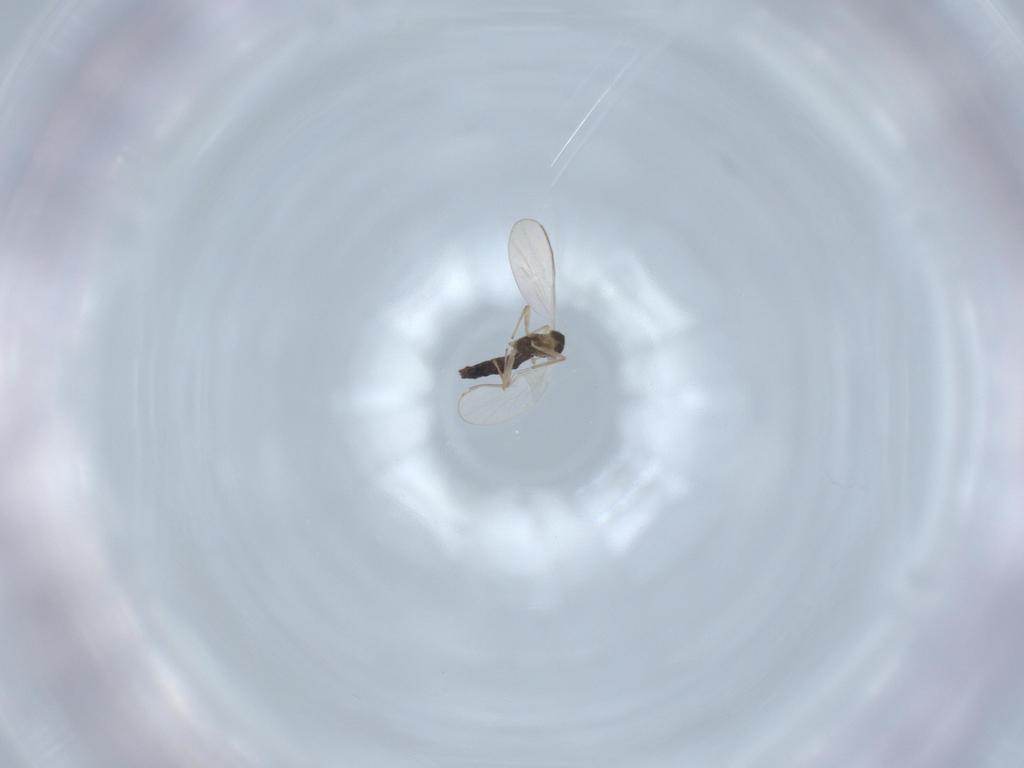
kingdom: Animalia
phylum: Arthropoda
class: Insecta
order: Diptera
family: Chironomidae
